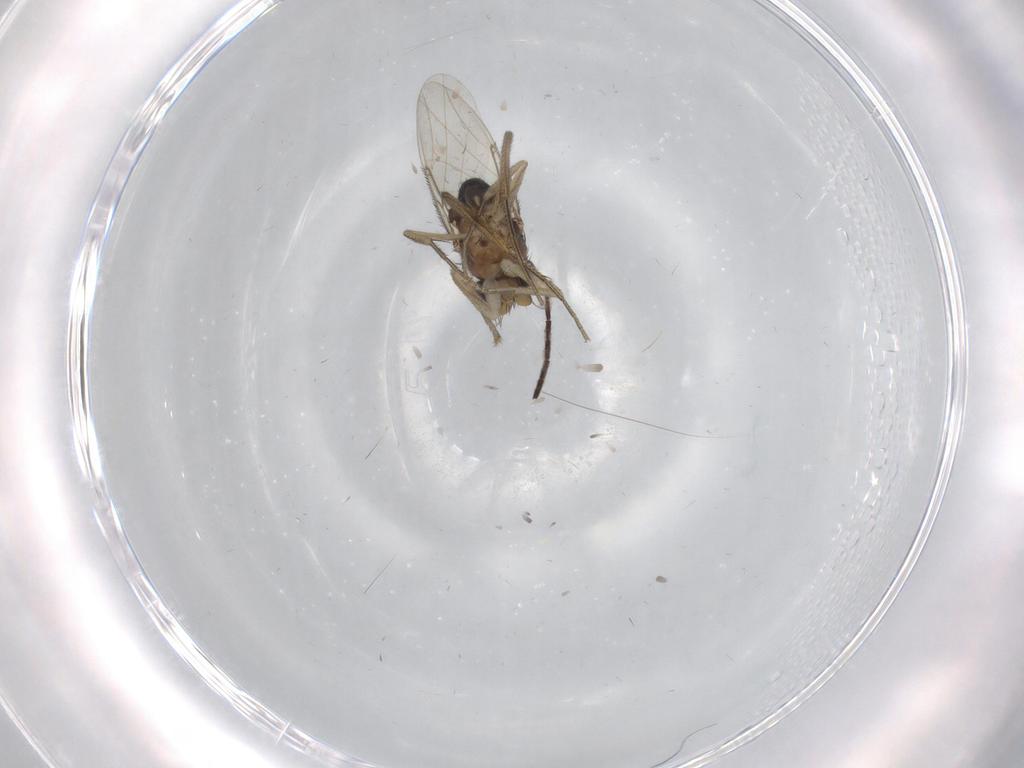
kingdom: Animalia
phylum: Arthropoda
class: Insecta
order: Diptera
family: Phoridae
